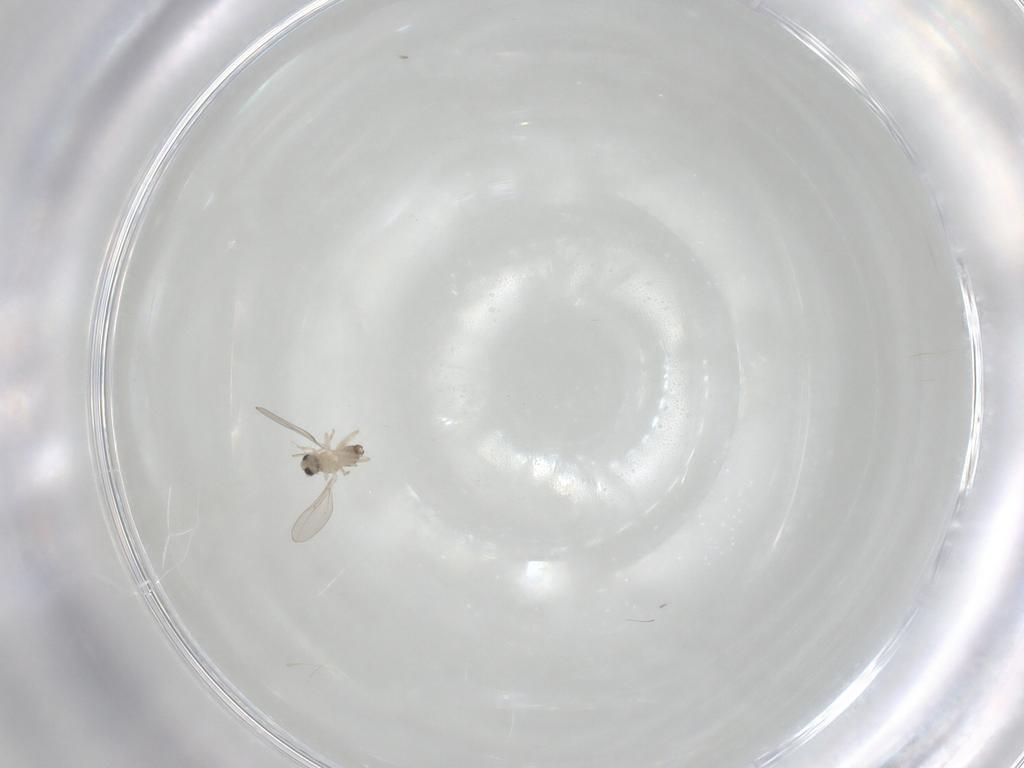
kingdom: Animalia
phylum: Arthropoda
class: Insecta
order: Diptera
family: Cecidomyiidae
